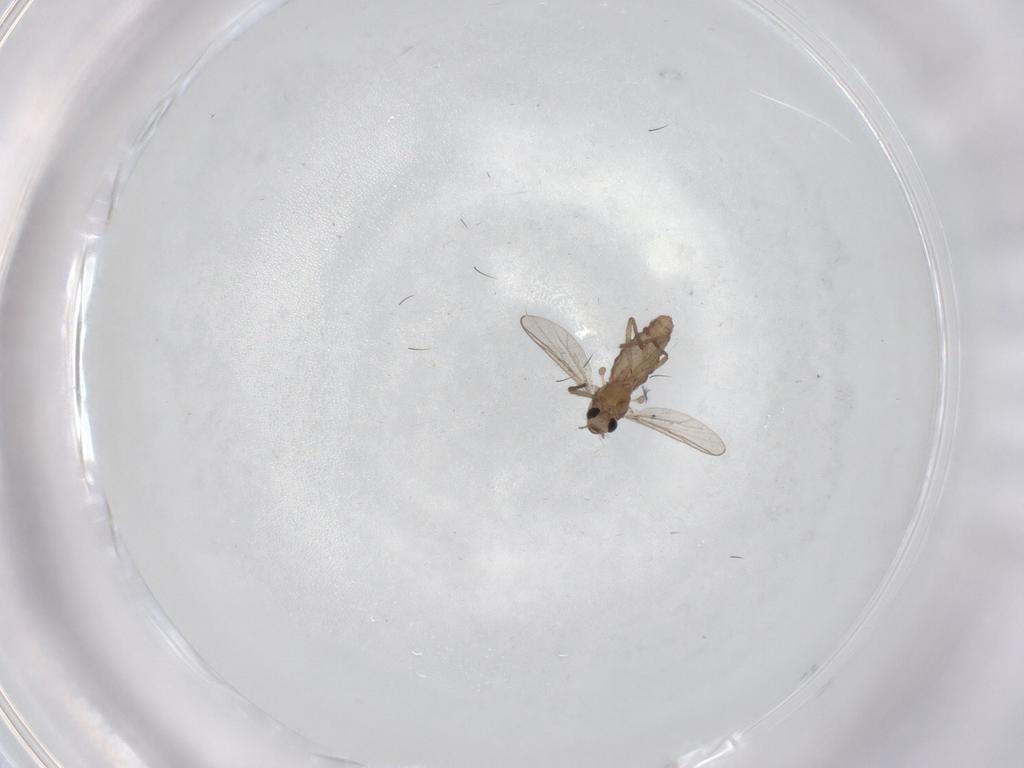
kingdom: Animalia
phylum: Arthropoda
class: Insecta
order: Diptera
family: Chironomidae
